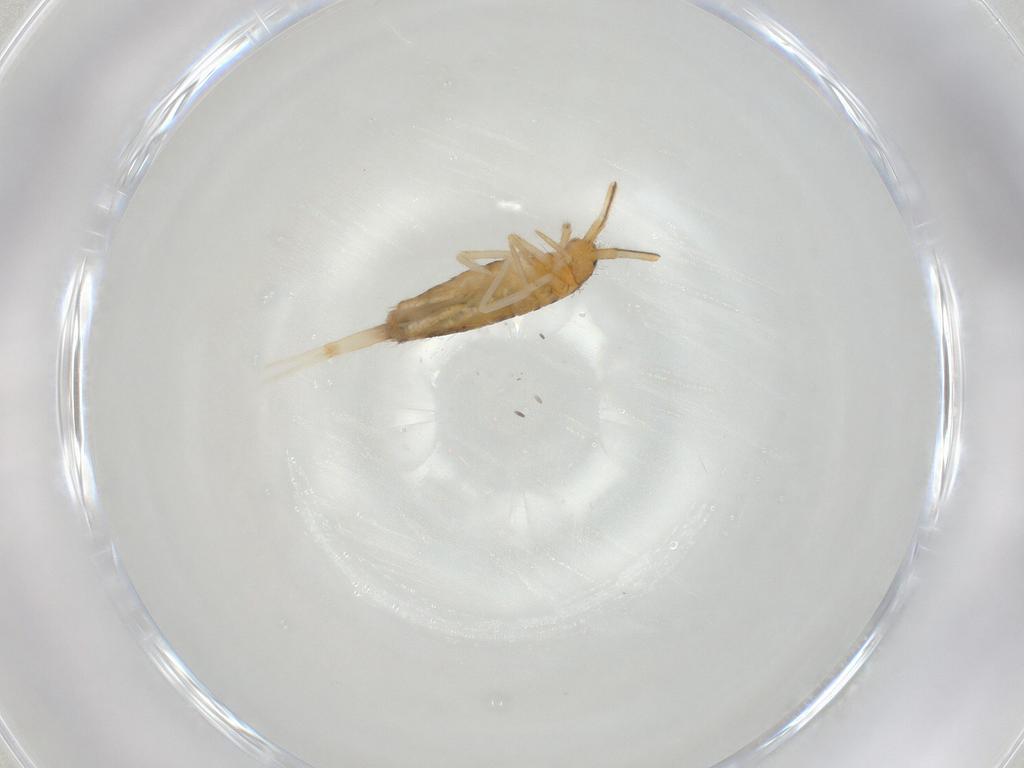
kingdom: Animalia
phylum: Arthropoda
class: Collembola
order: Entomobryomorpha
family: Entomobryidae
